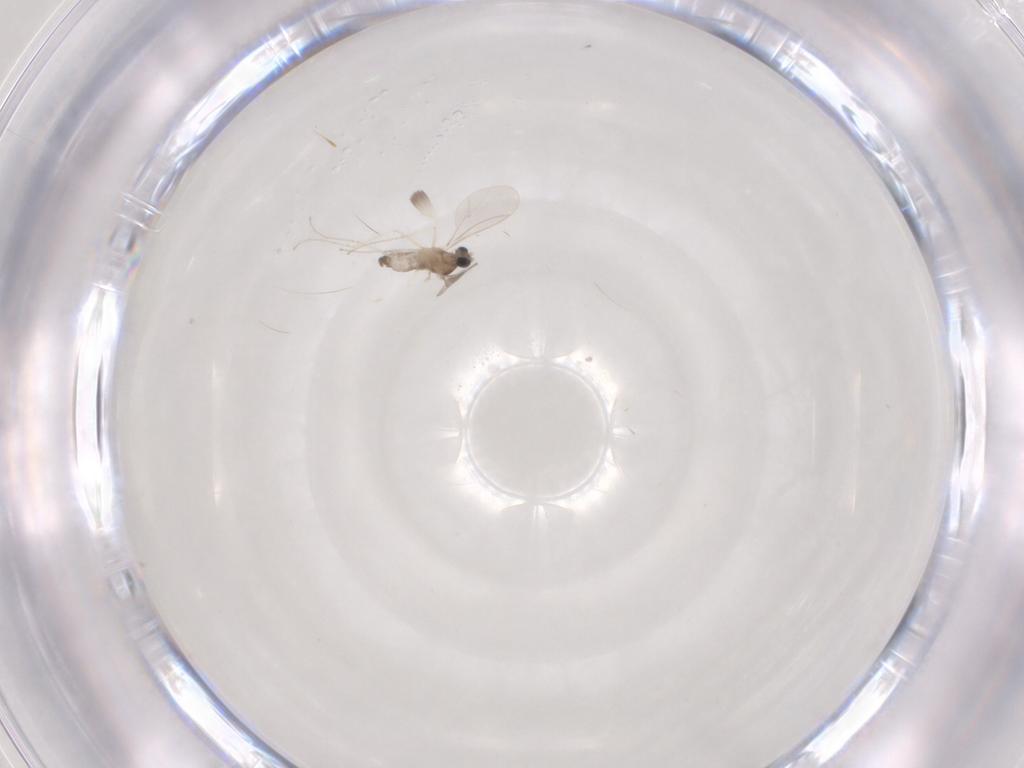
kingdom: Animalia
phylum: Arthropoda
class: Insecta
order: Diptera
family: Cecidomyiidae
